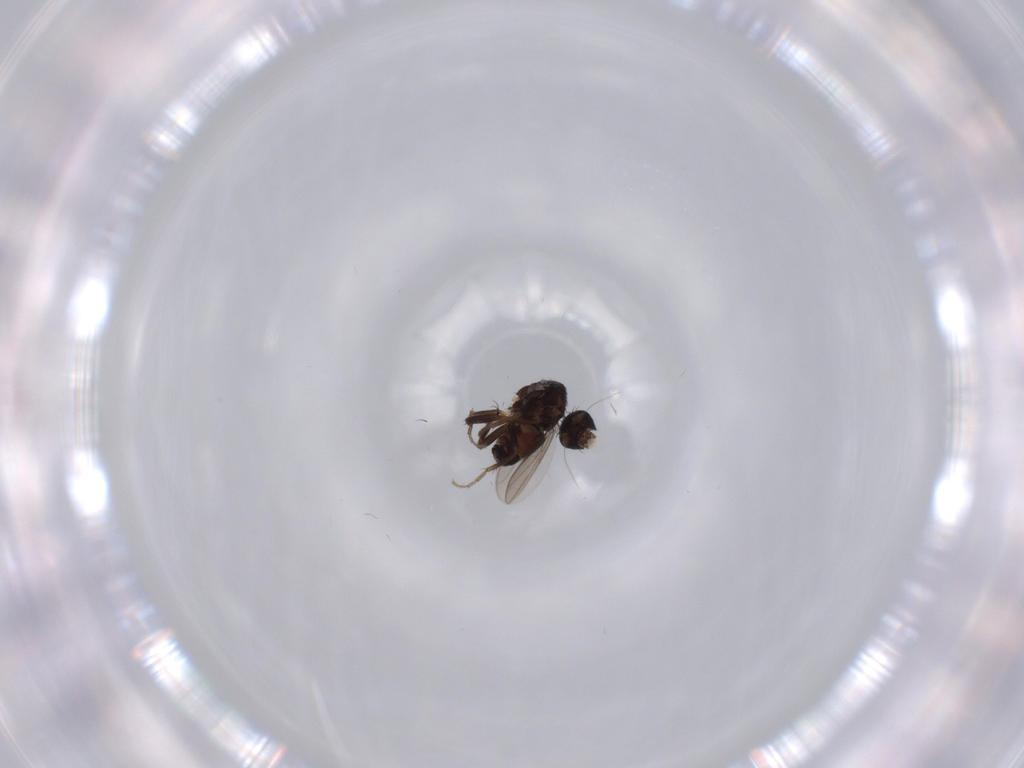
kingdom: Animalia
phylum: Arthropoda
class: Insecta
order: Diptera
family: Sphaeroceridae
